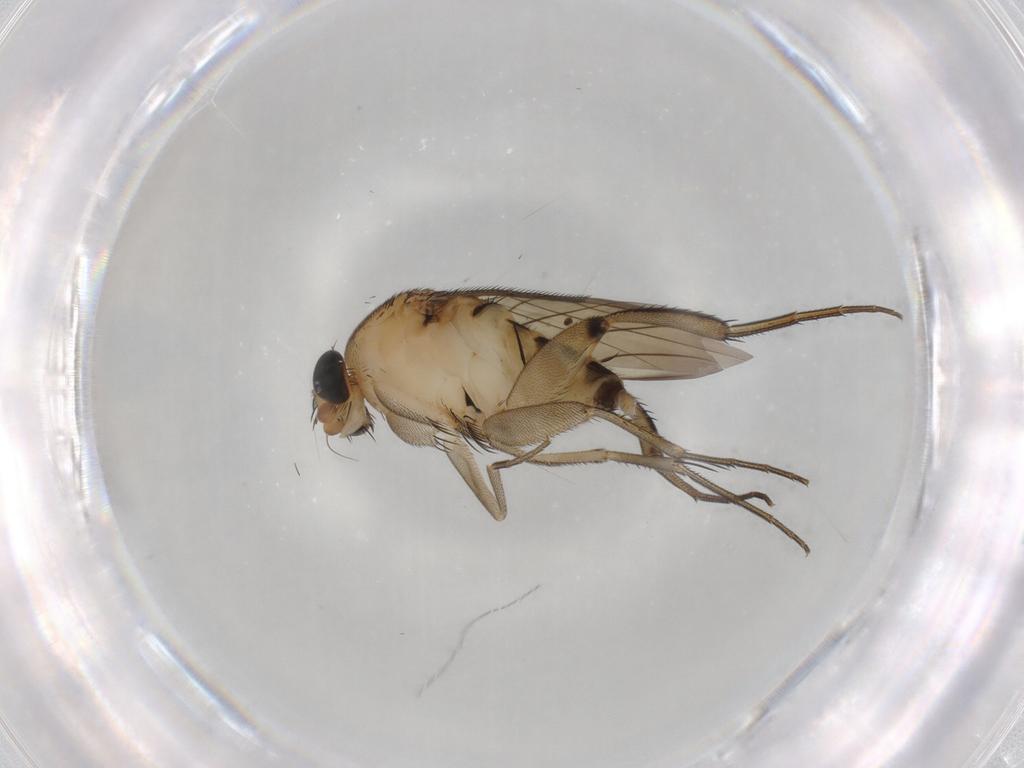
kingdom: Animalia
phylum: Arthropoda
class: Insecta
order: Diptera
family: Phoridae
